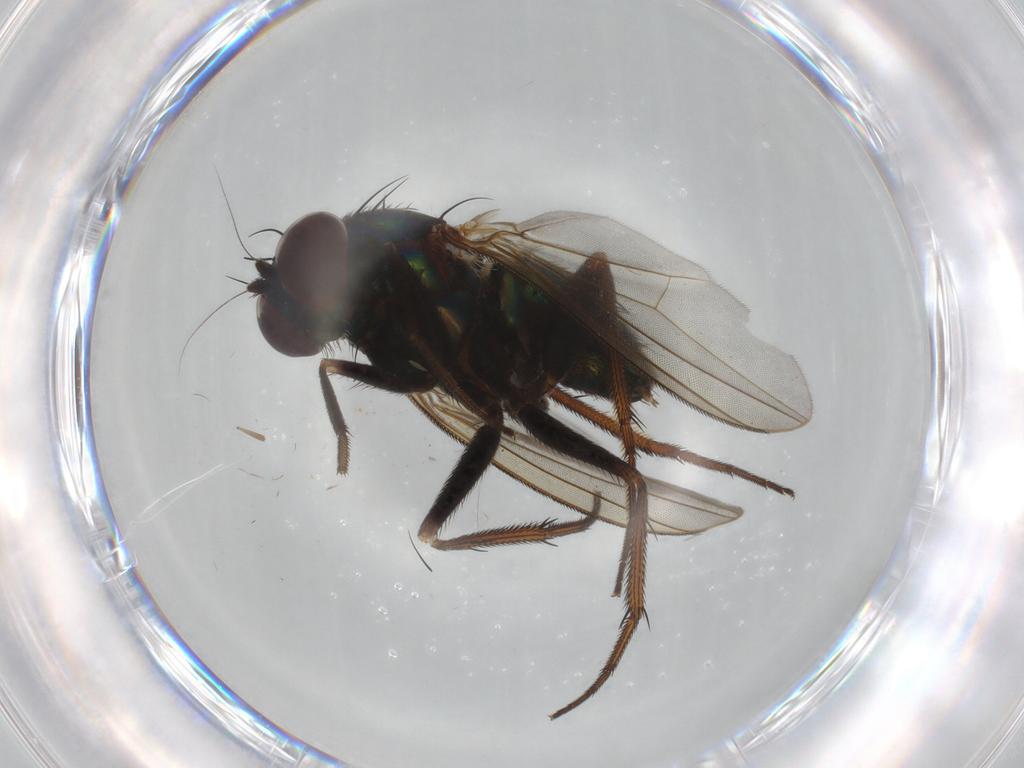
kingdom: Animalia
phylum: Arthropoda
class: Insecta
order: Diptera
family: Dolichopodidae
